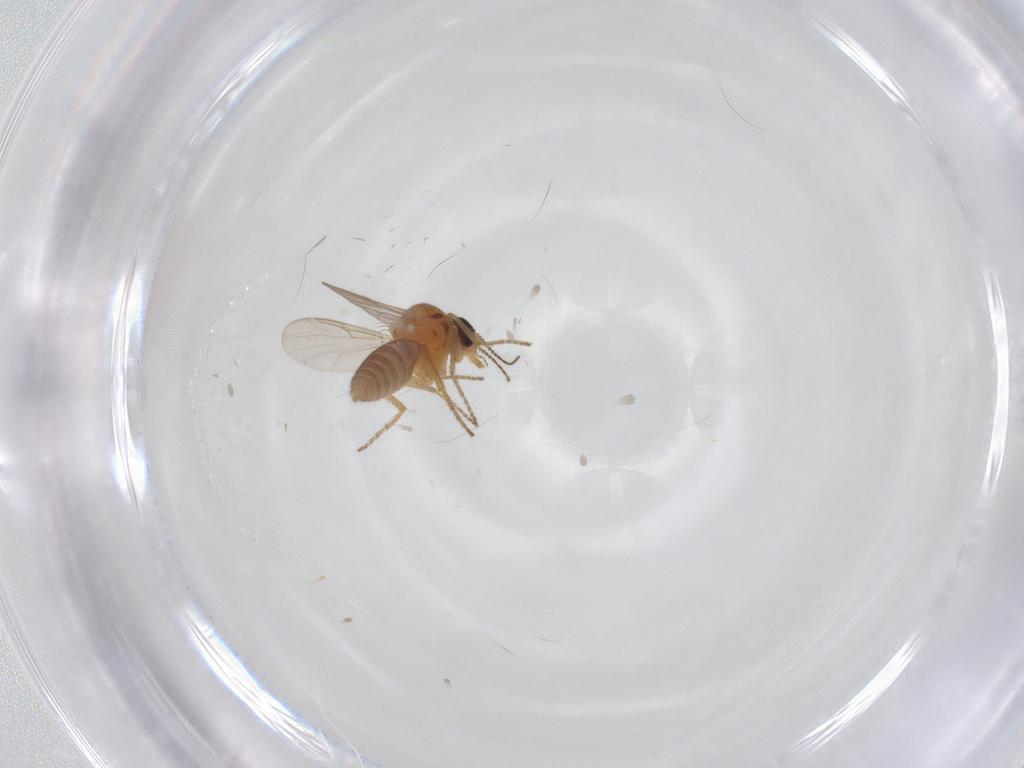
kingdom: Animalia
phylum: Arthropoda
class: Insecta
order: Diptera
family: Ceratopogonidae
